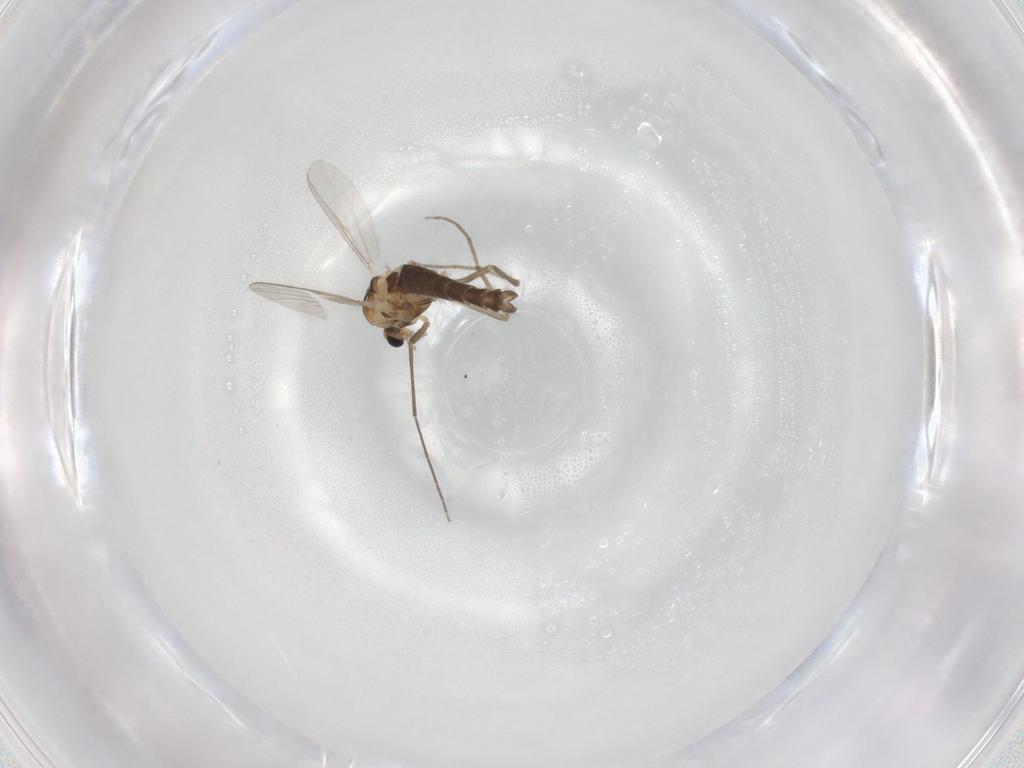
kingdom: Animalia
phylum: Arthropoda
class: Insecta
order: Diptera
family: Chironomidae
